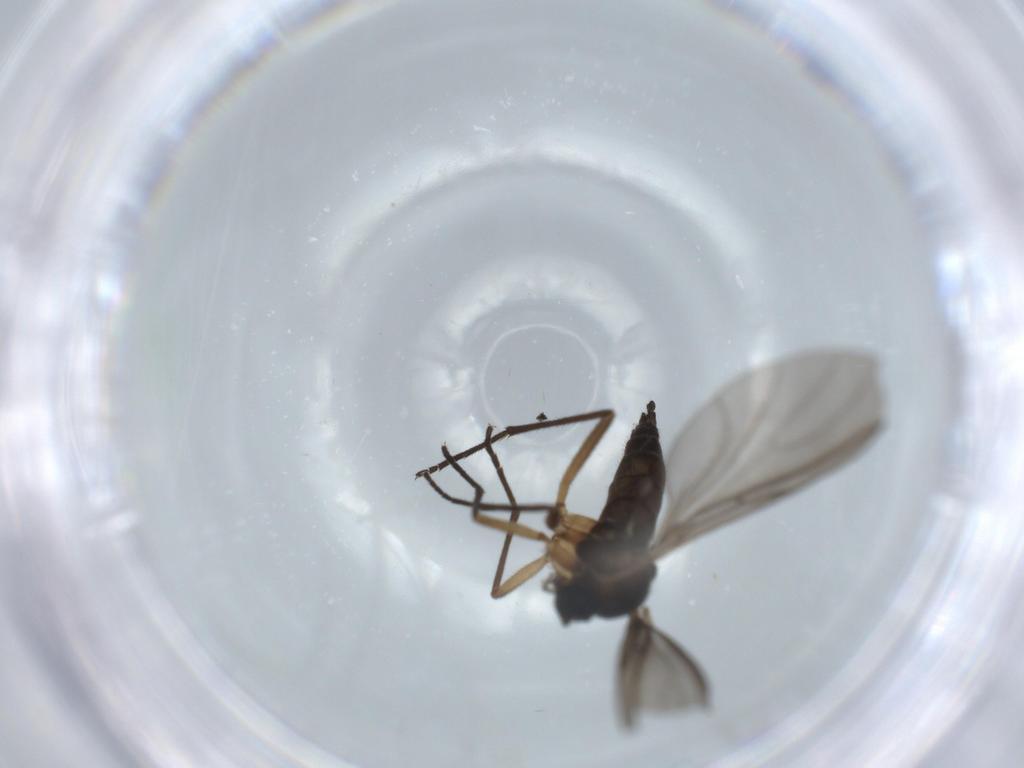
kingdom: Animalia
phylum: Arthropoda
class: Insecta
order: Diptera
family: Sciaridae
